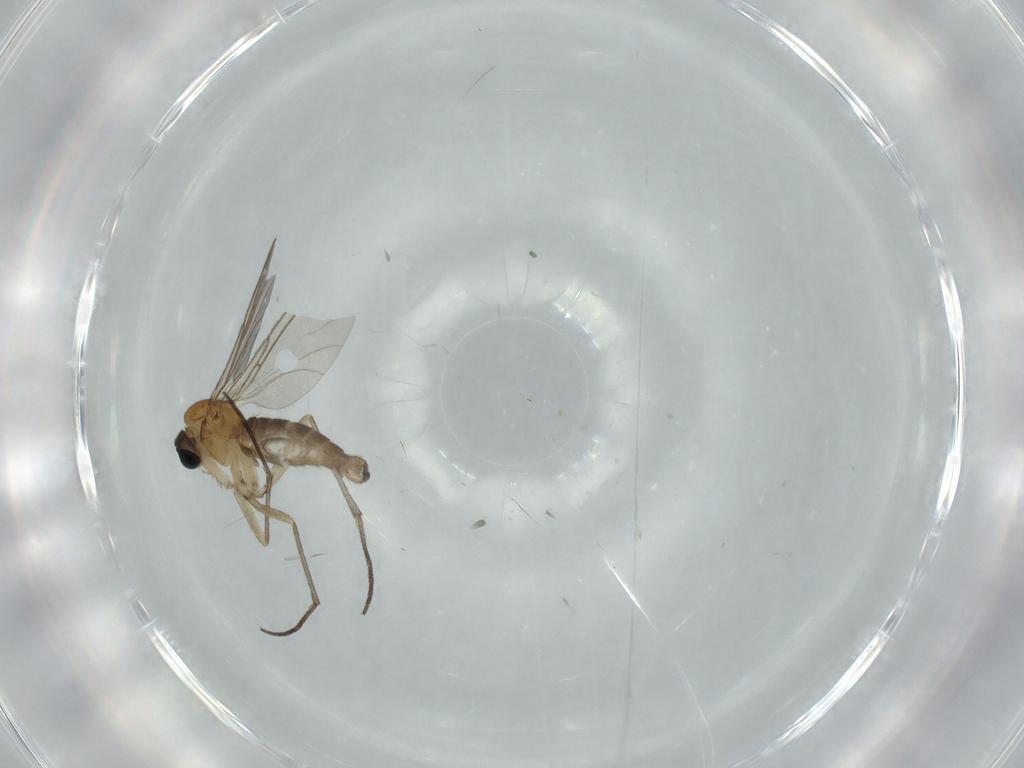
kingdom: Animalia
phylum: Arthropoda
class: Insecta
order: Diptera
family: Sciaridae
